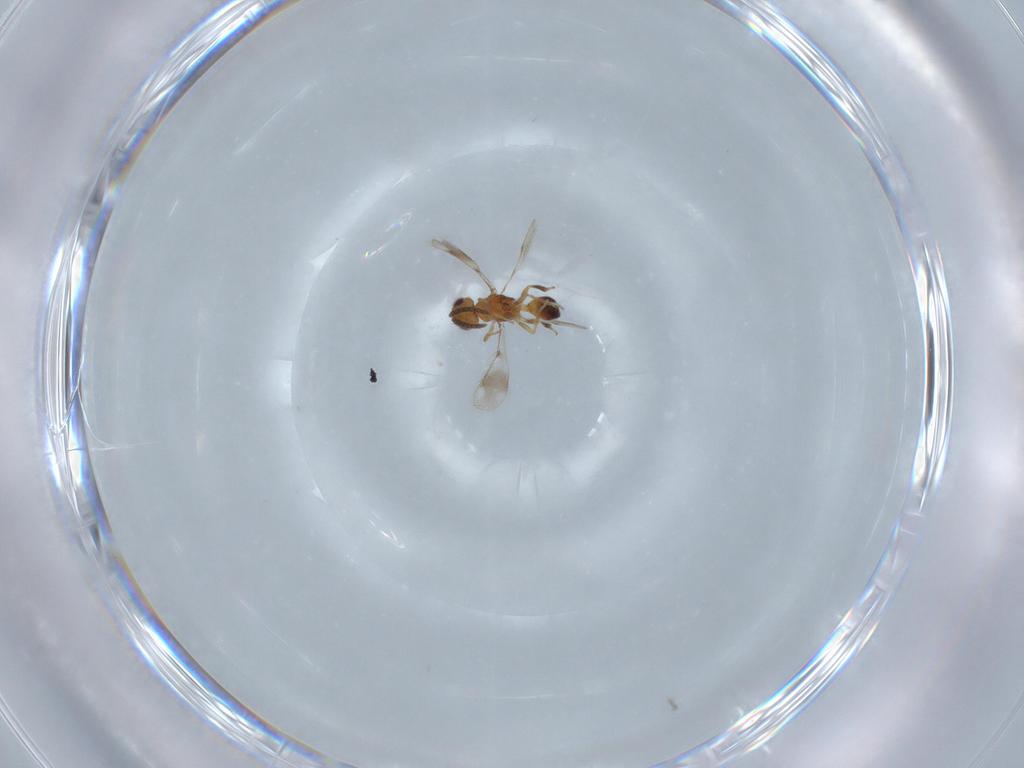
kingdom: Animalia
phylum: Arthropoda
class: Insecta
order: Hymenoptera
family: Pteromalidae
